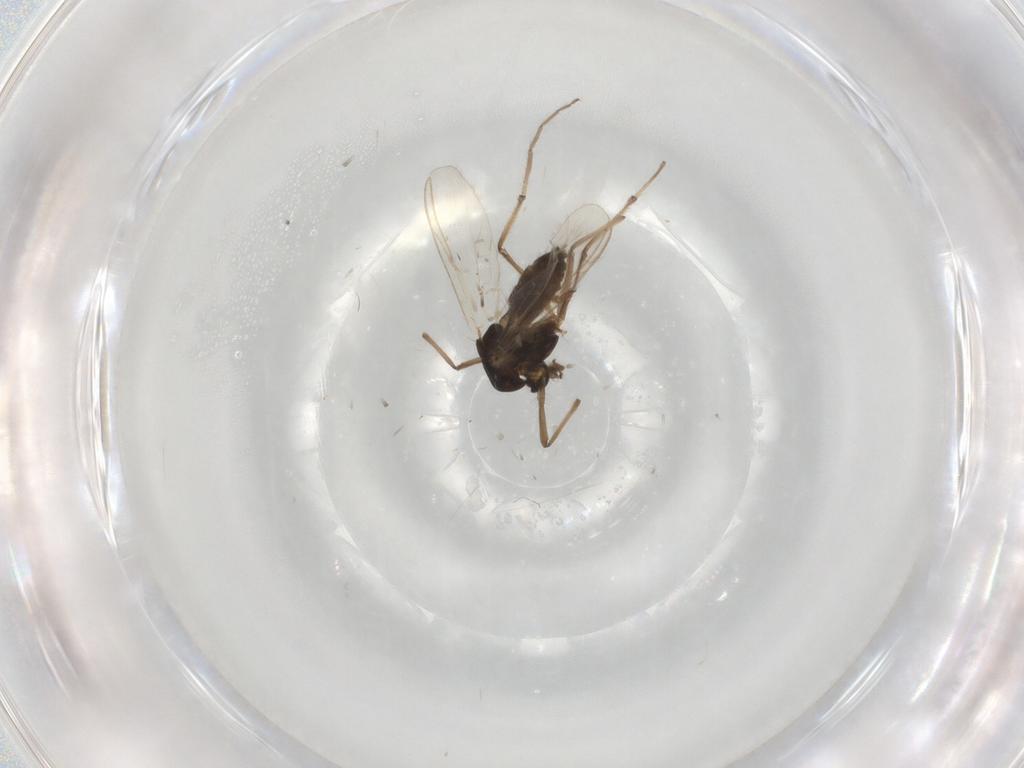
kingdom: Animalia
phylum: Arthropoda
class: Insecta
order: Diptera
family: Chironomidae
